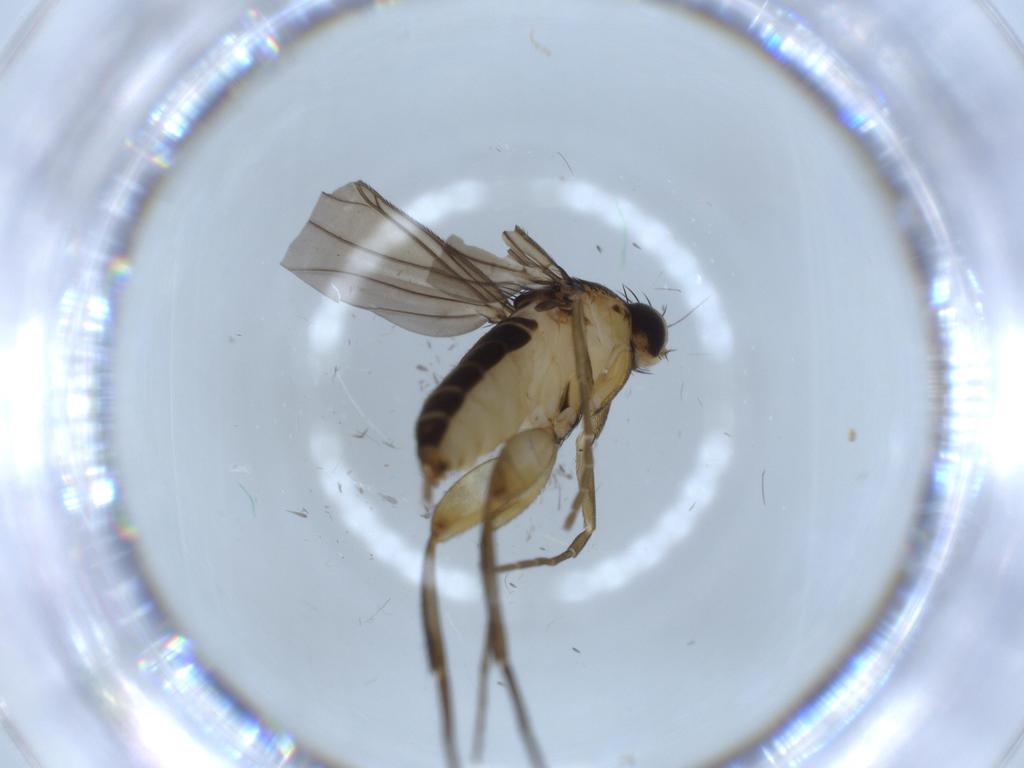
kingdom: Animalia
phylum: Arthropoda
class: Insecta
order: Diptera
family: Phoridae
